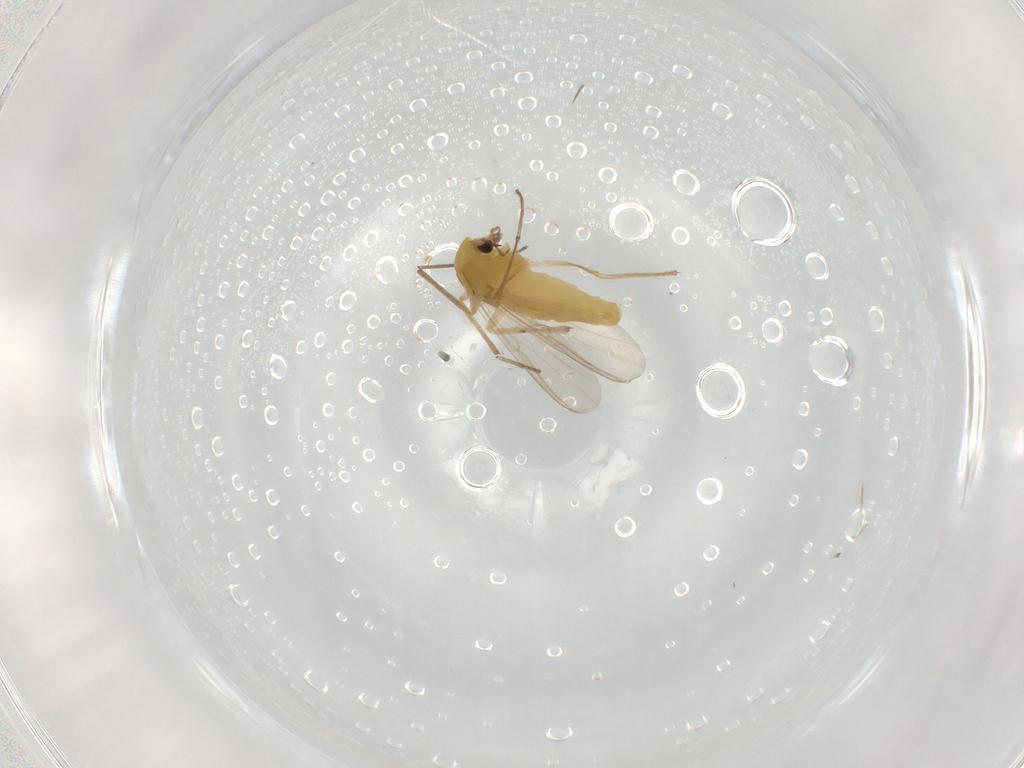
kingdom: Animalia
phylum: Arthropoda
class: Insecta
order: Diptera
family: Chironomidae
